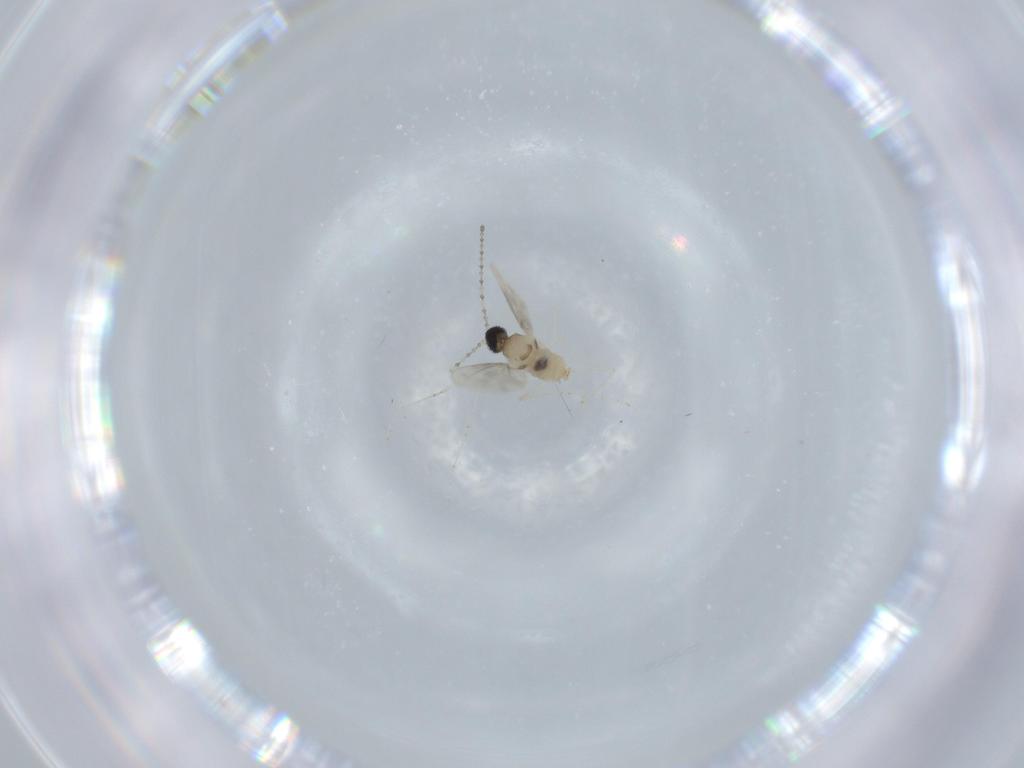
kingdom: Animalia
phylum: Arthropoda
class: Insecta
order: Diptera
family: Cecidomyiidae
